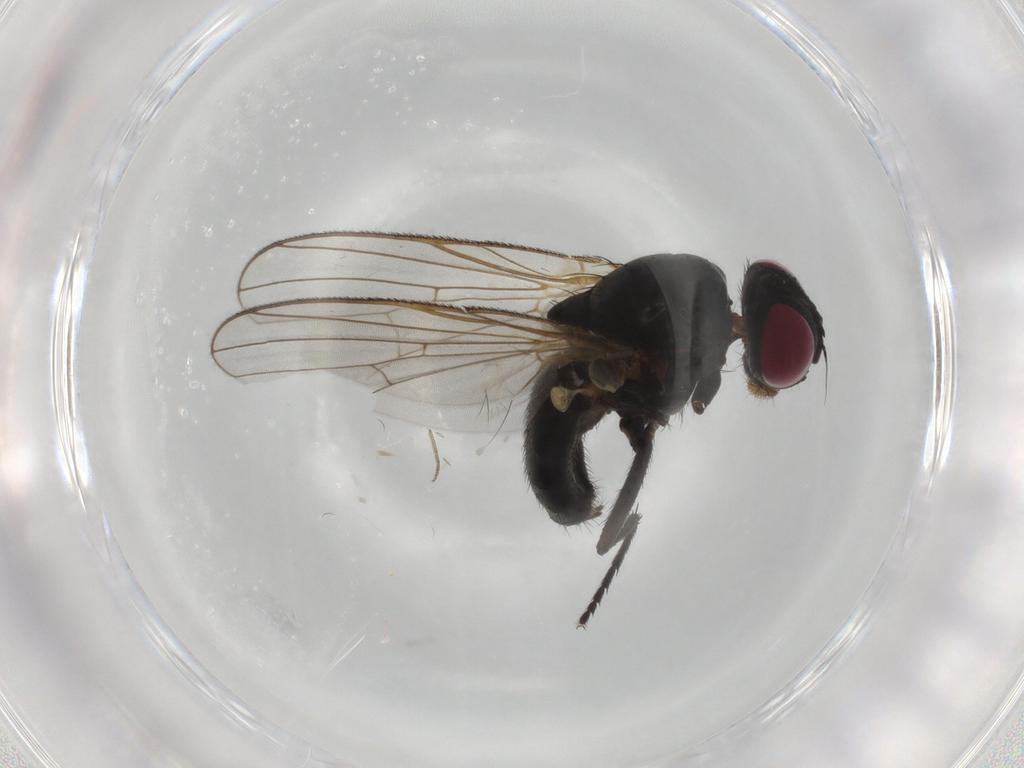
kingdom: Animalia
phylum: Arthropoda
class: Insecta
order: Diptera
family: Fannia
